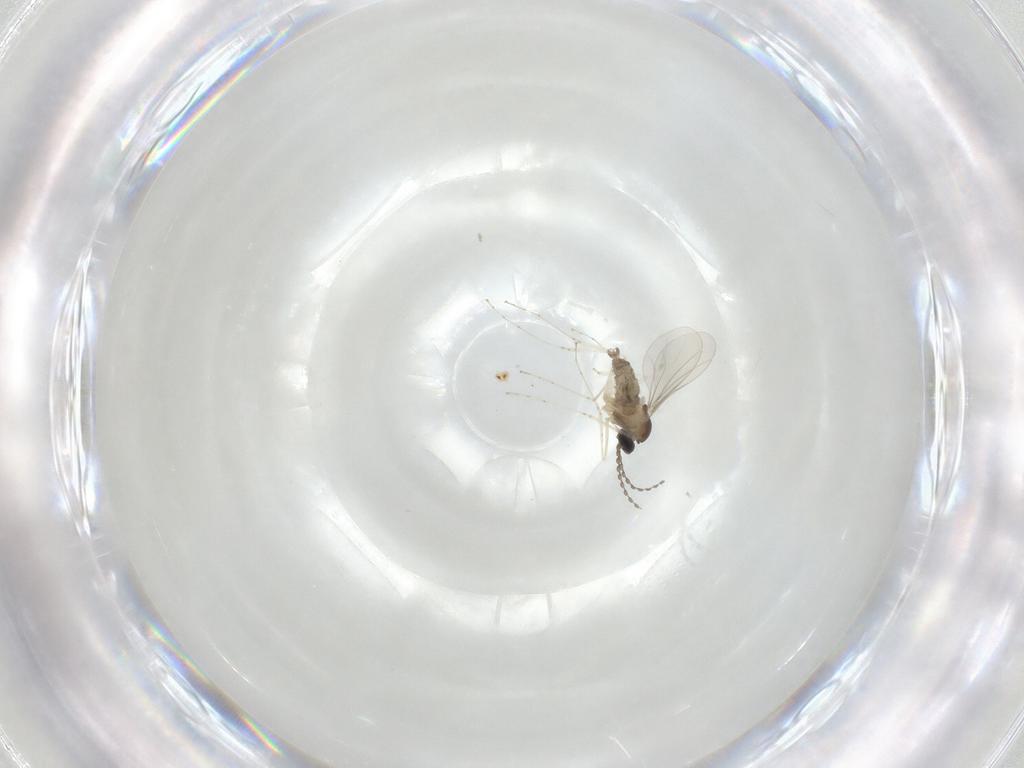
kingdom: Animalia
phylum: Arthropoda
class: Insecta
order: Diptera
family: Cecidomyiidae
